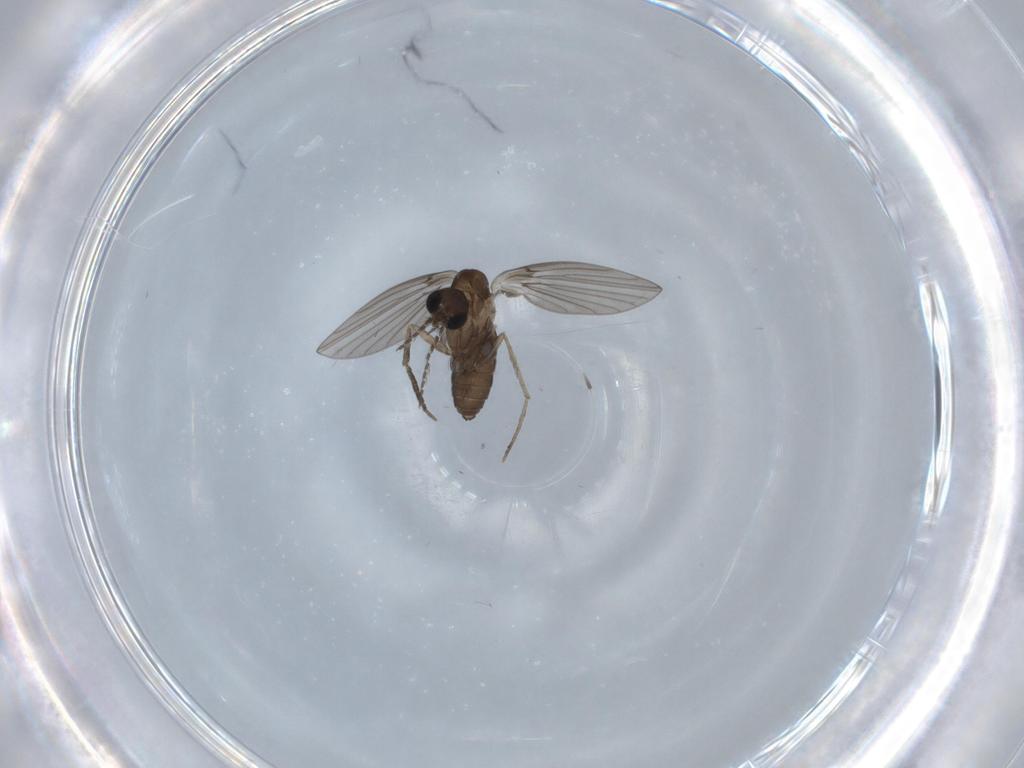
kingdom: Animalia
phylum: Arthropoda
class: Insecta
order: Diptera
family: Psychodidae
